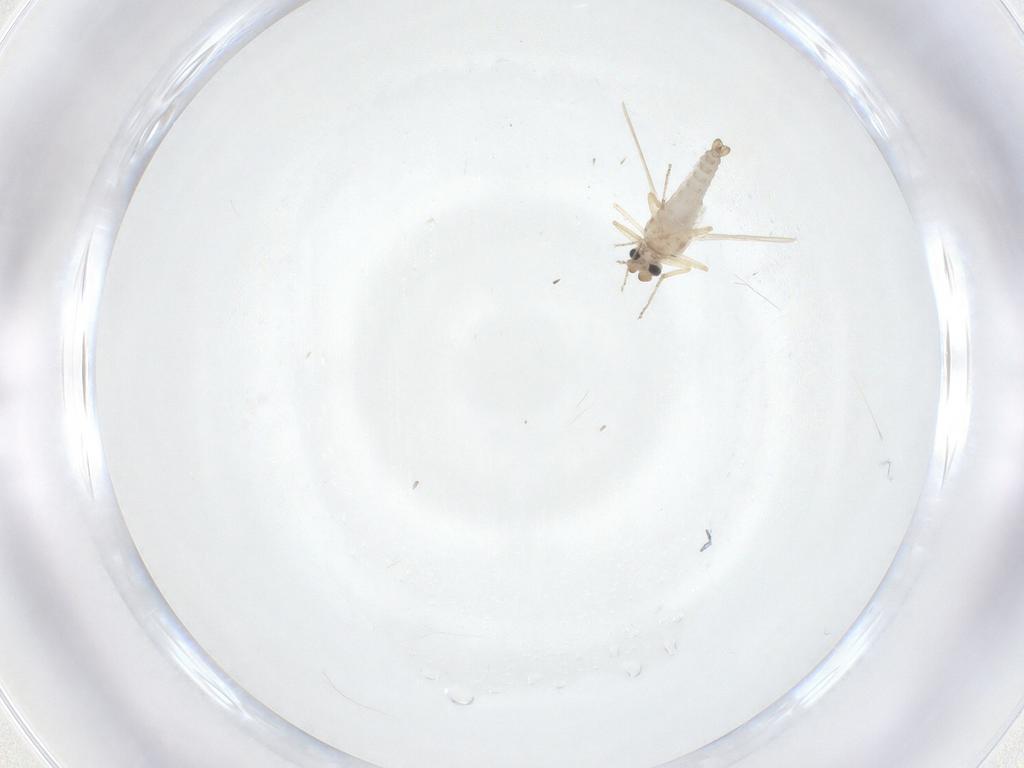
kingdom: Animalia
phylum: Arthropoda
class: Insecta
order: Diptera
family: Ceratopogonidae
